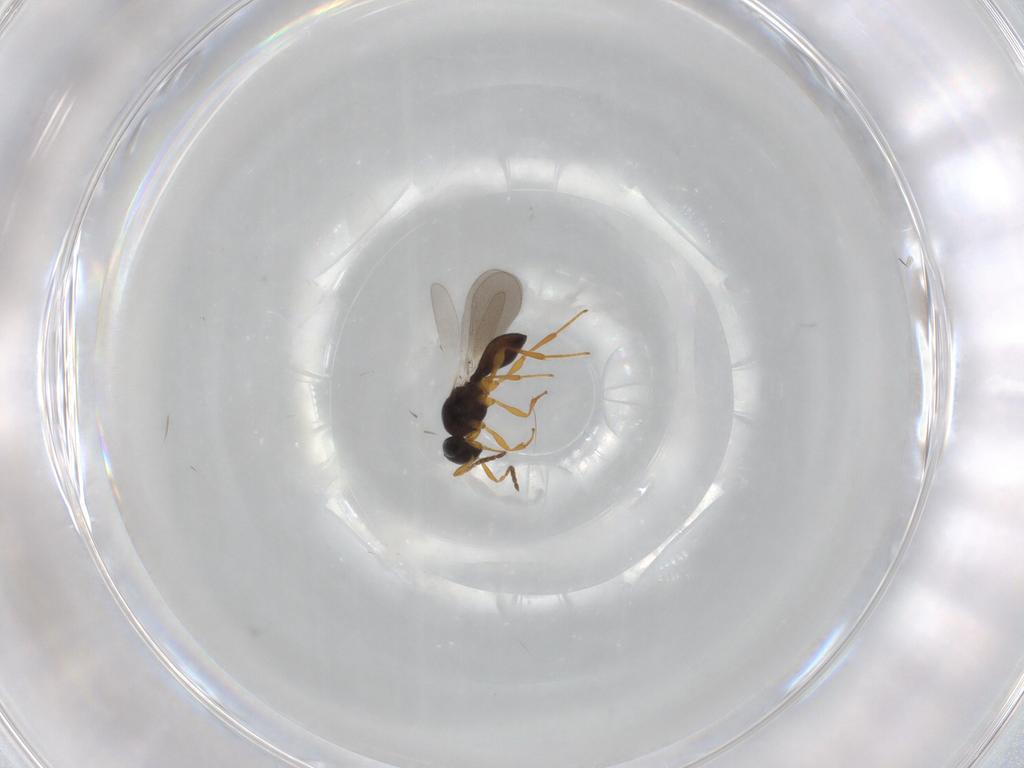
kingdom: Animalia
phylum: Arthropoda
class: Insecta
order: Hymenoptera
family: Platygastridae
